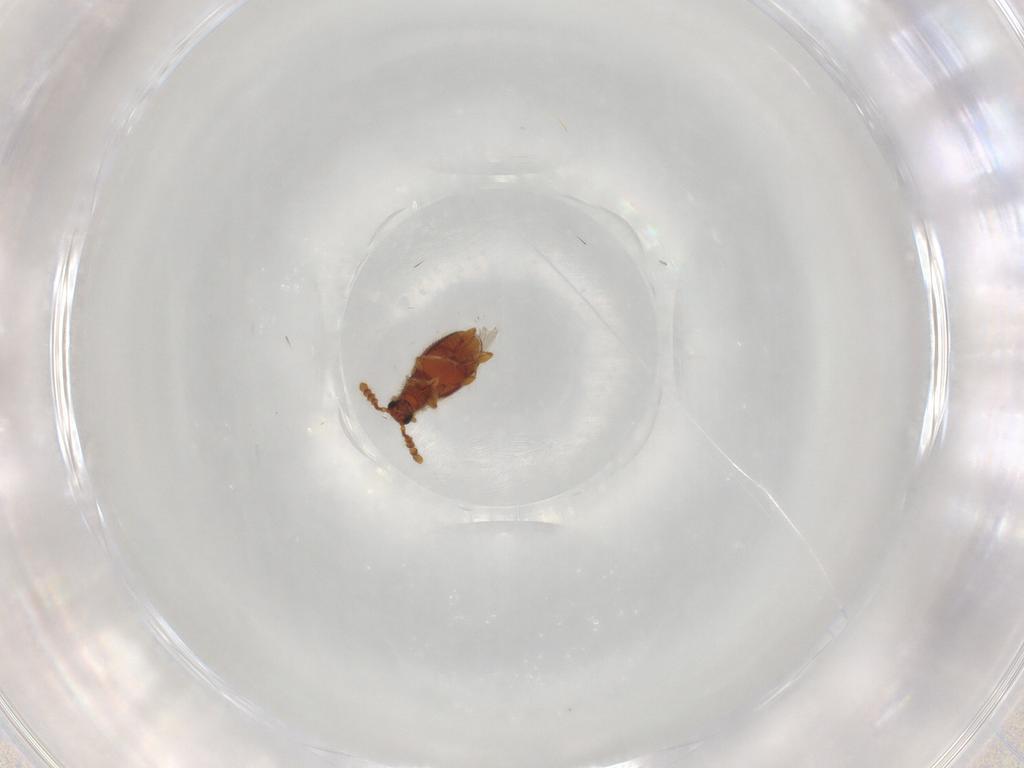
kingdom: Animalia
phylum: Arthropoda
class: Insecta
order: Coleoptera
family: Staphylinidae
